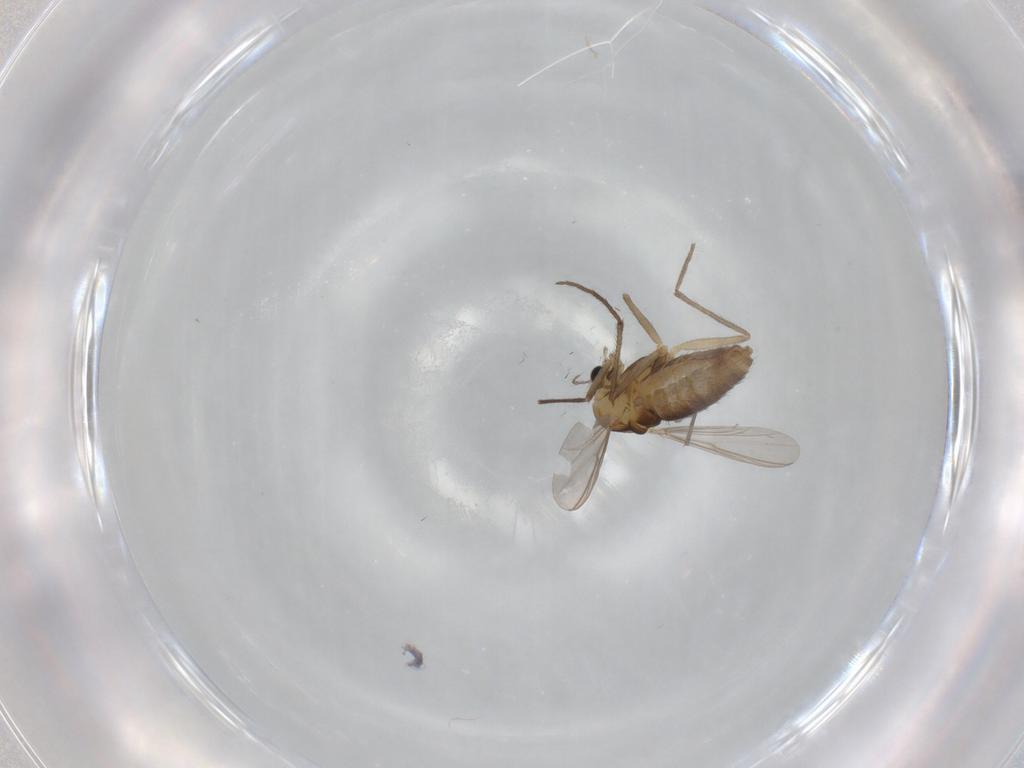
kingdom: Animalia
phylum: Arthropoda
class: Insecta
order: Diptera
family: Chironomidae
